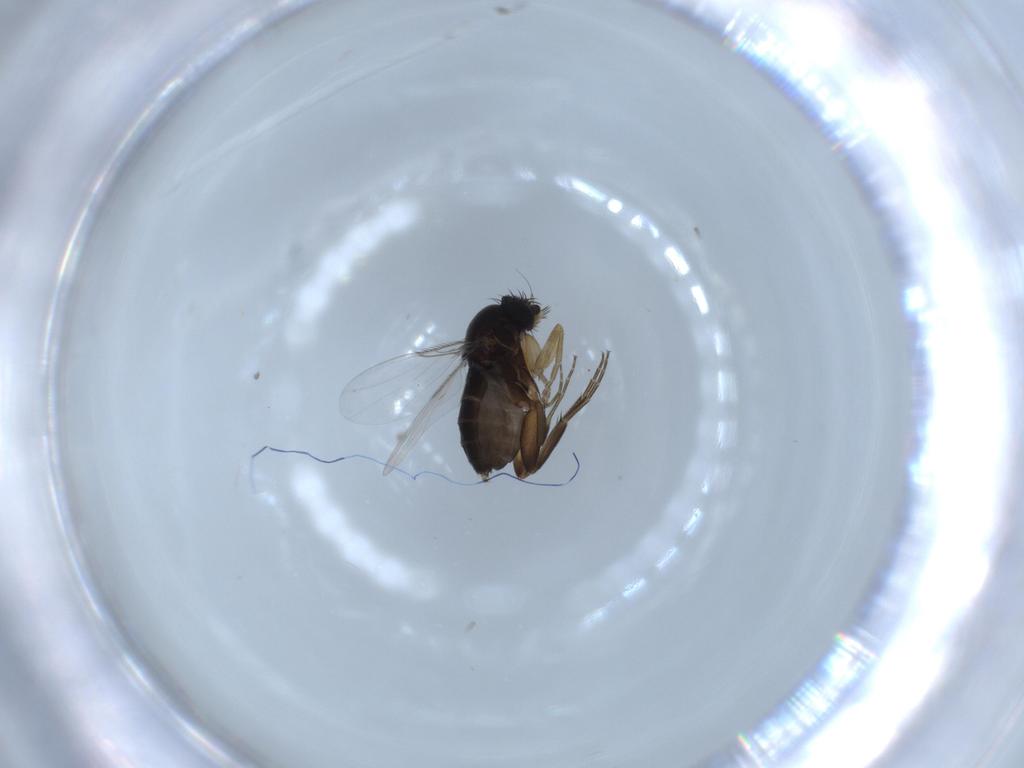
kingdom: Animalia
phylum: Arthropoda
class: Insecta
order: Diptera
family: Phoridae
